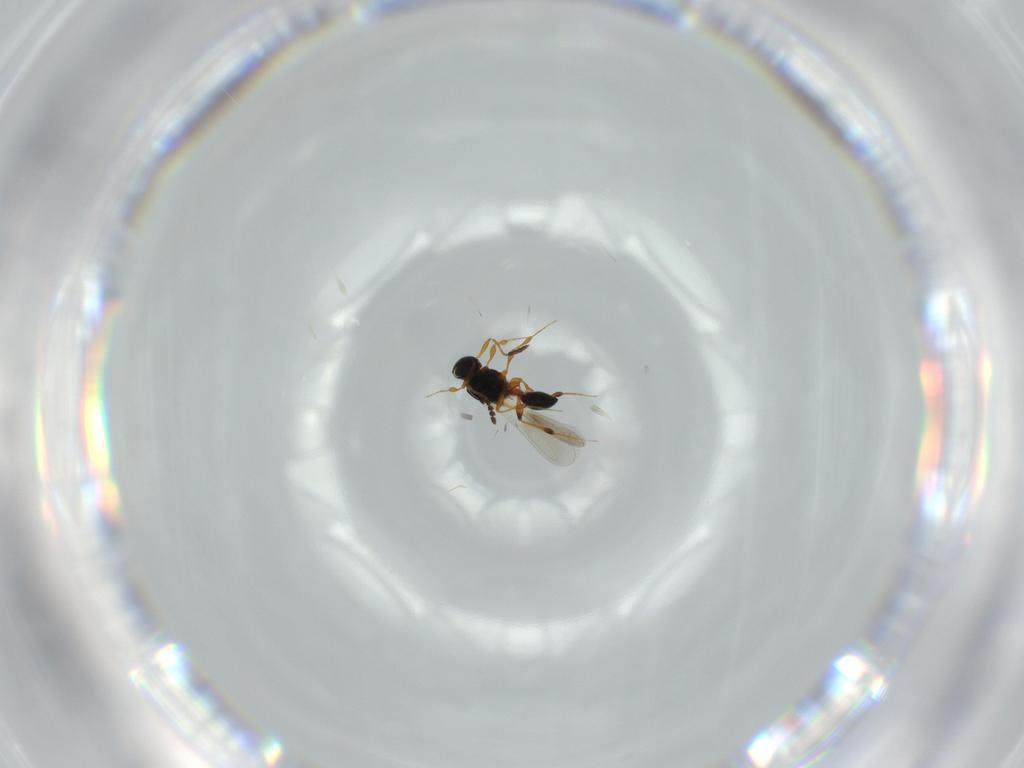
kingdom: Animalia
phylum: Arthropoda
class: Insecta
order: Hymenoptera
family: Platygastridae
